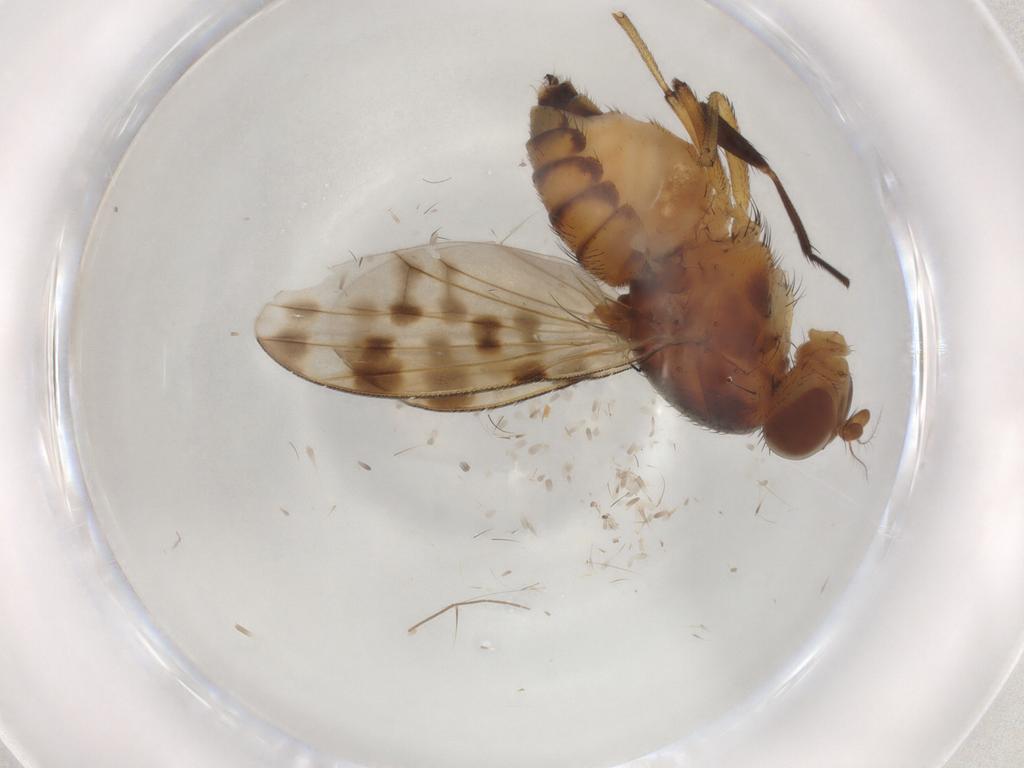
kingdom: Animalia
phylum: Arthropoda
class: Insecta
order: Diptera
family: Cecidomyiidae
